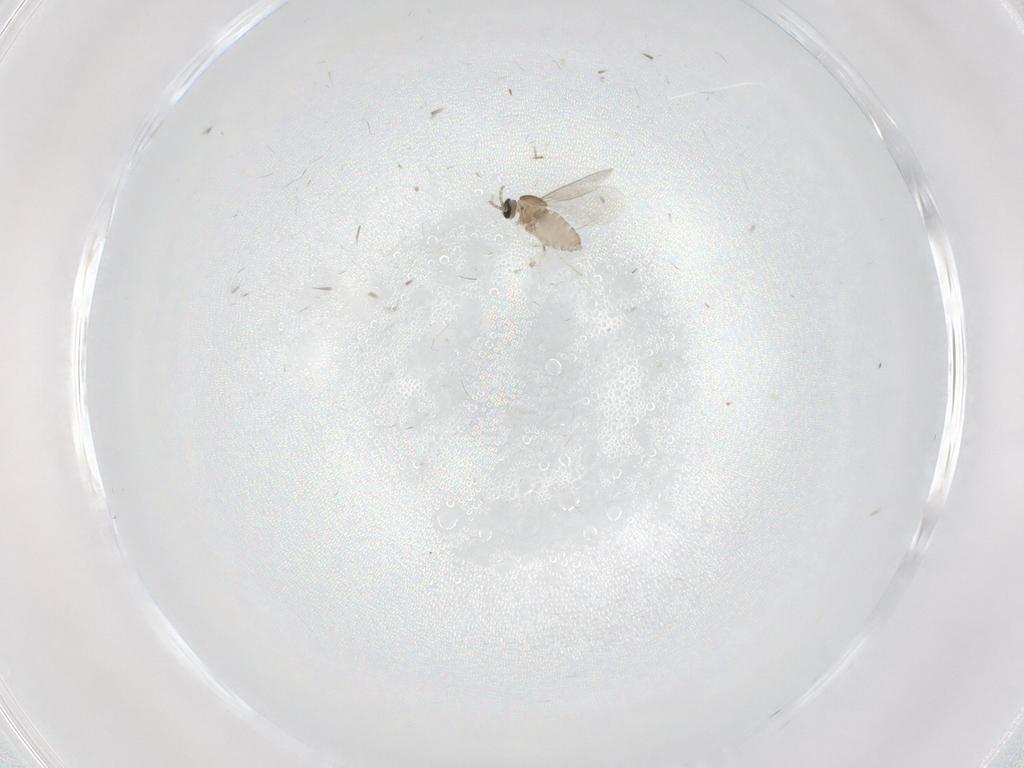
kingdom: Animalia
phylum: Arthropoda
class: Insecta
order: Diptera
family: Cecidomyiidae
